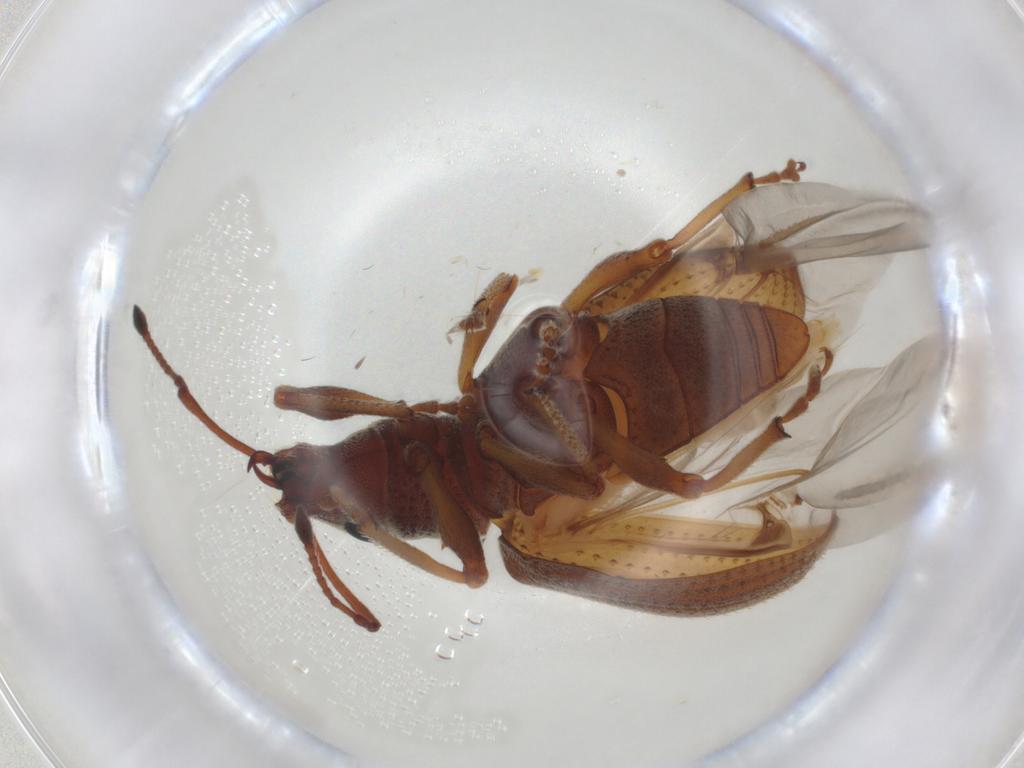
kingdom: Animalia
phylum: Arthropoda
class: Insecta
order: Coleoptera
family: Curculionidae
